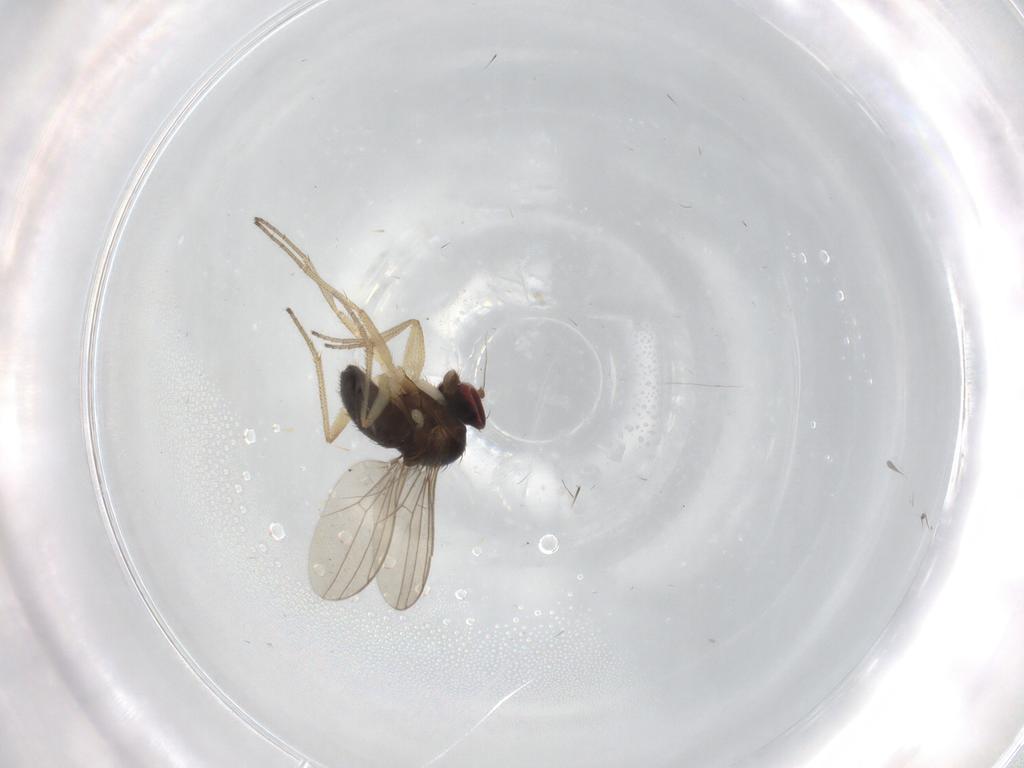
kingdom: Animalia
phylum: Arthropoda
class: Insecta
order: Diptera
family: Dolichopodidae
